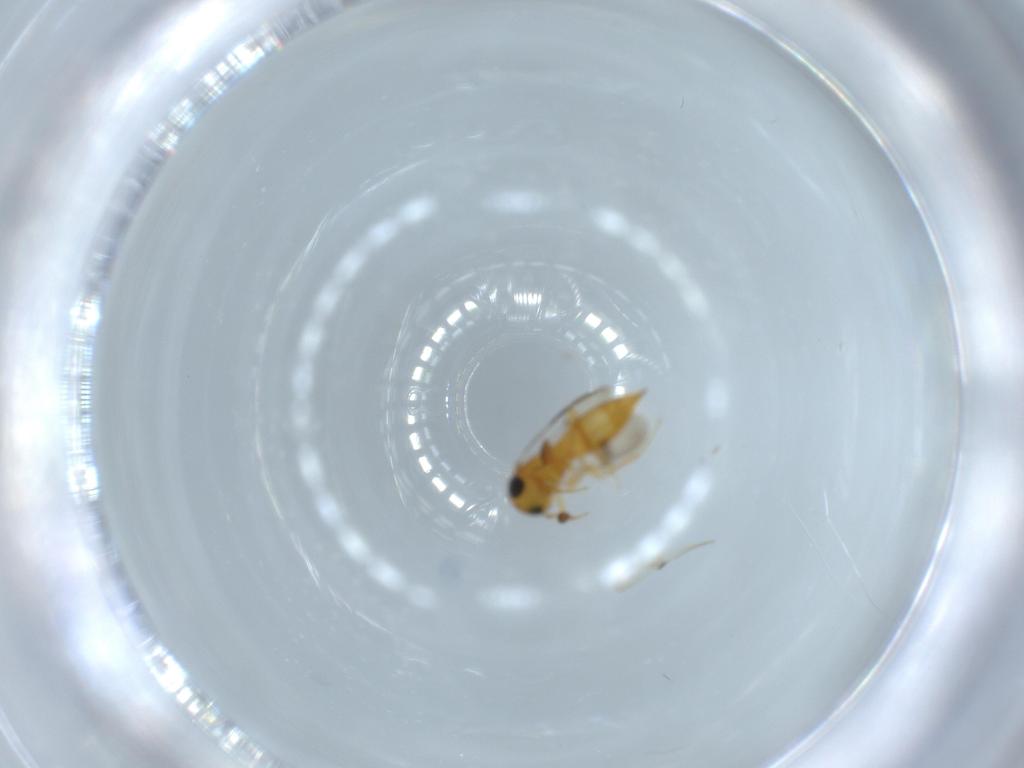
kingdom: Animalia
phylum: Arthropoda
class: Insecta
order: Hymenoptera
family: Scelionidae
